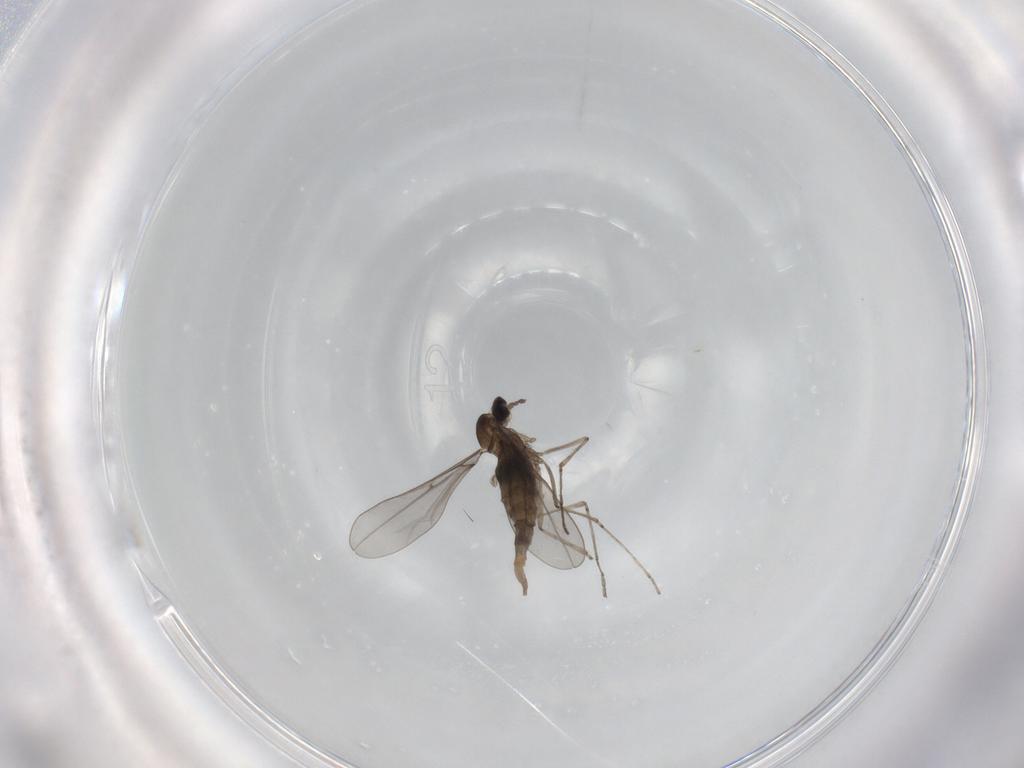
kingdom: Animalia
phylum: Arthropoda
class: Insecta
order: Diptera
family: Cecidomyiidae
